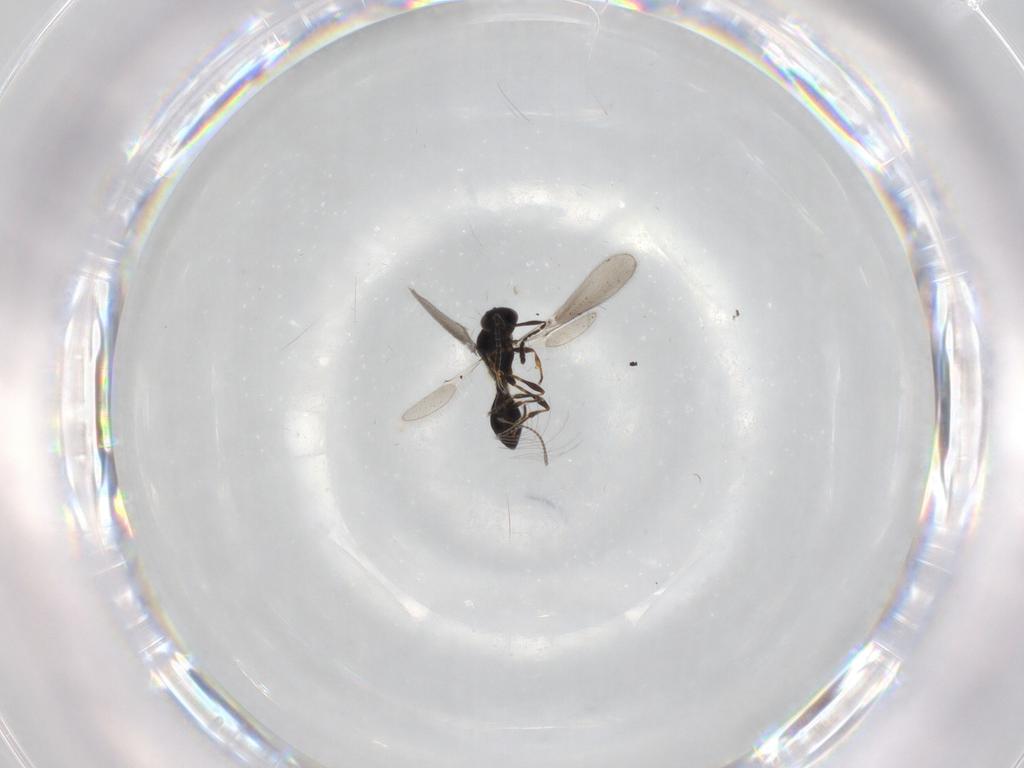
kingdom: Animalia
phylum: Arthropoda
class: Insecta
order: Hymenoptera
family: Platygastridae
